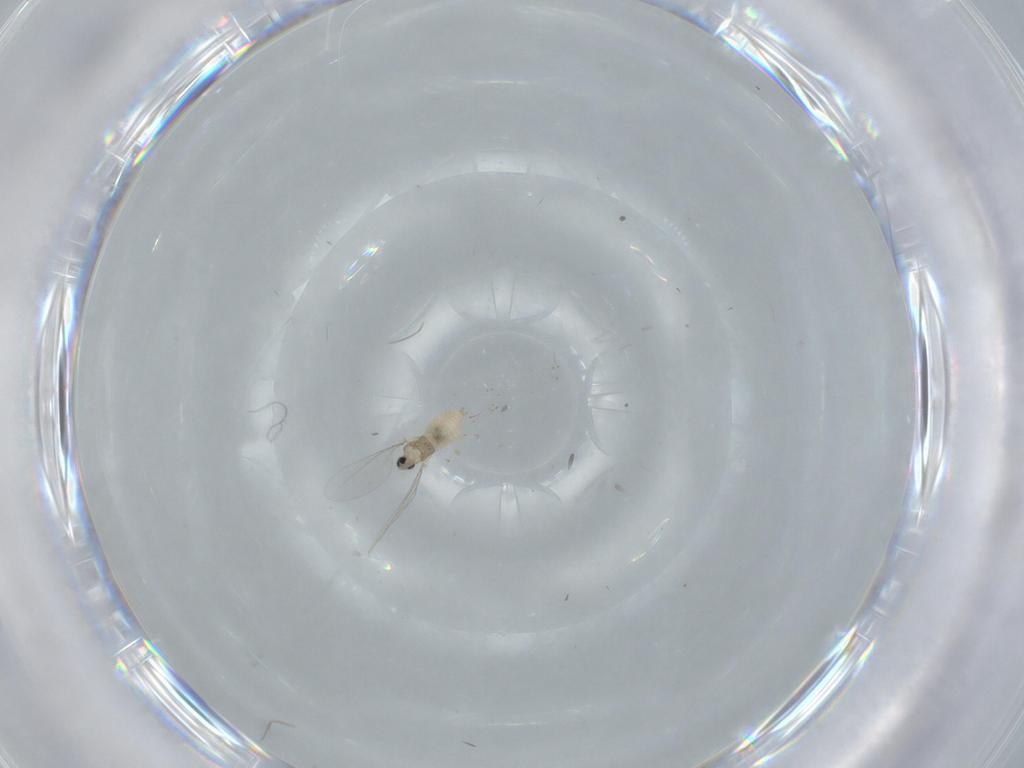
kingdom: Animalia
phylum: Arthropoda
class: Insecta
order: Diptera
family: Cecidomyiidae
